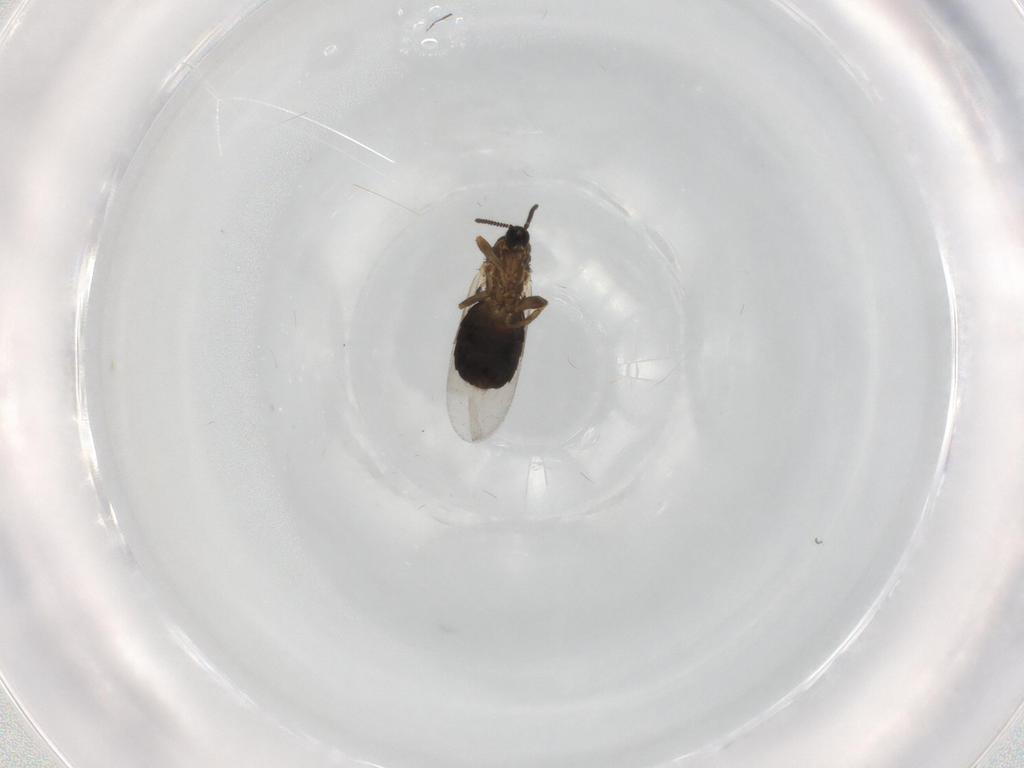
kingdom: Animalia
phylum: Arthropoda
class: Insecta
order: Diptera
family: Scatopsidae
